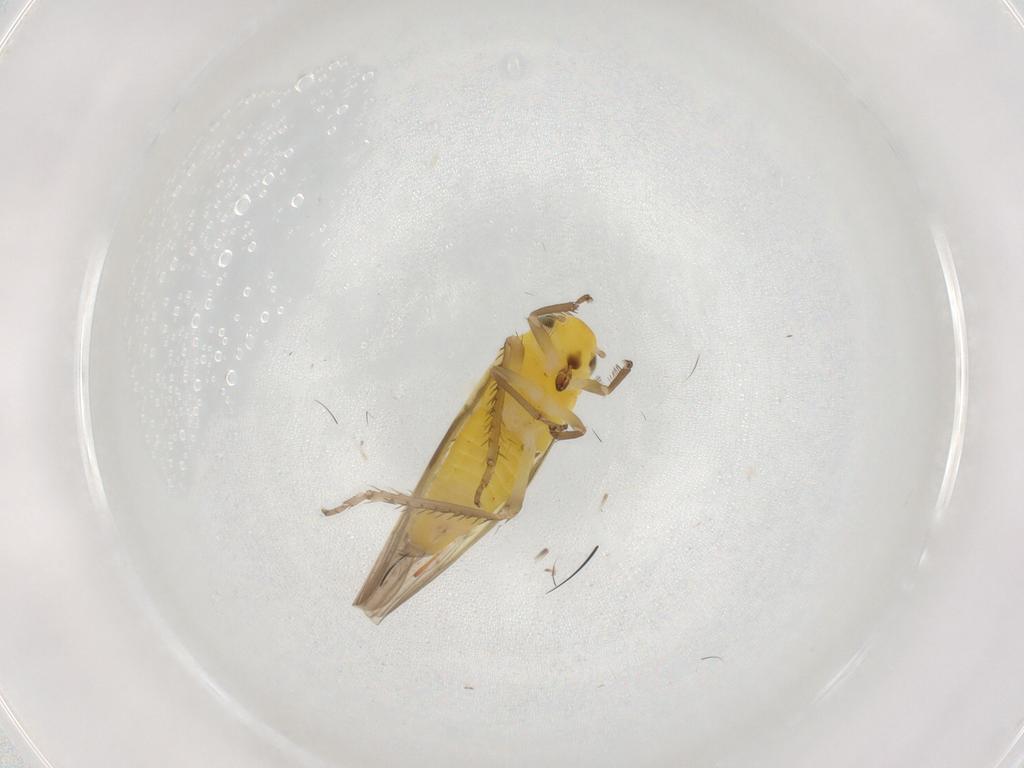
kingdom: Animalia
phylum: Arthropoda
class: Insecta
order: Hemiptera
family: Cicadellidae
